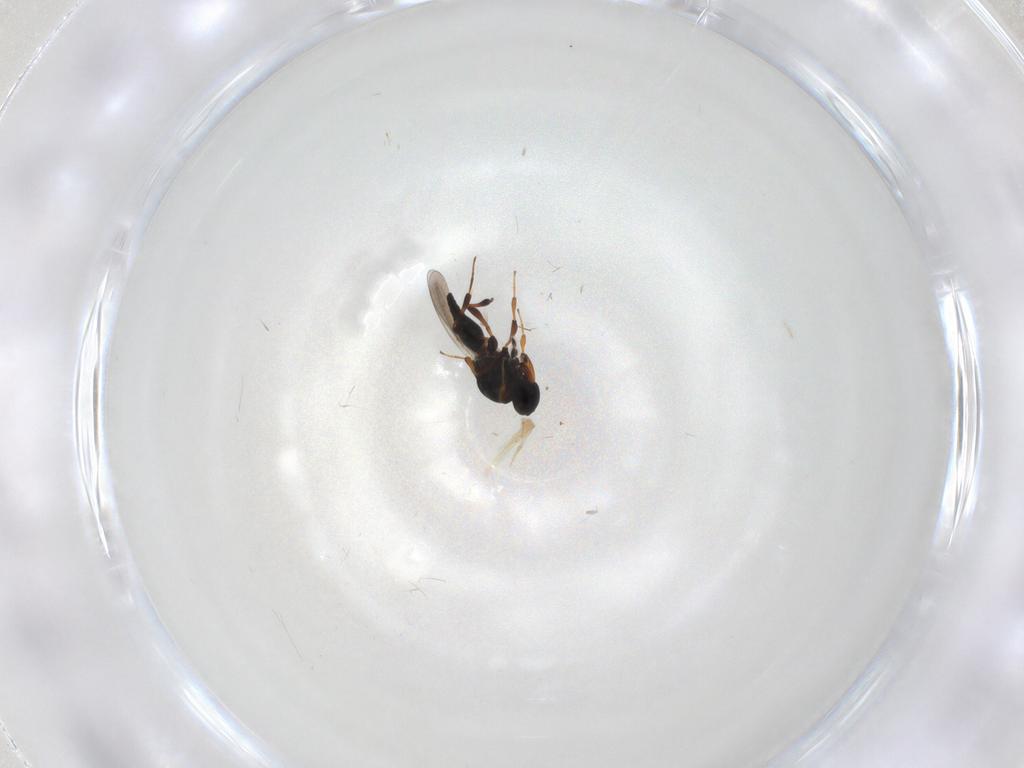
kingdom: Animalia
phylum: Arthropoda
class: Insecta
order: Hymenoptera
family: Platygastridae
